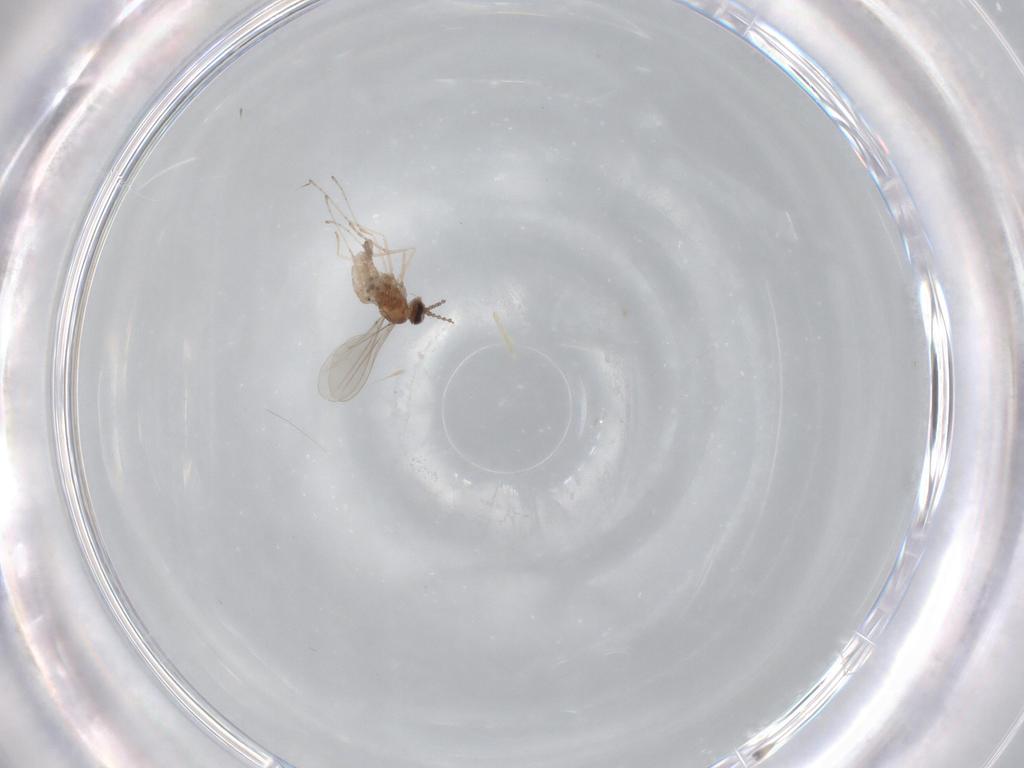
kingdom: Animalia
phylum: Arthropoda
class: Insecta
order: Diptera
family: Cecidomyiidae
